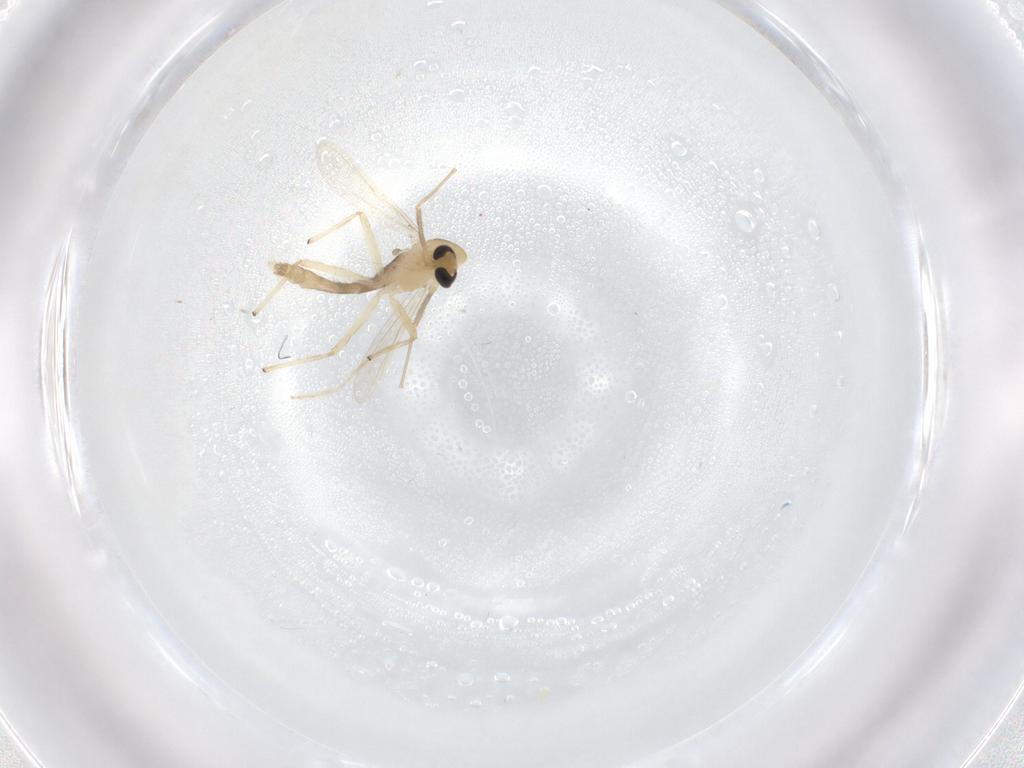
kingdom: Animalia
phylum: Arthropoda
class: Insecta
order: Diptera
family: Chironomidae
